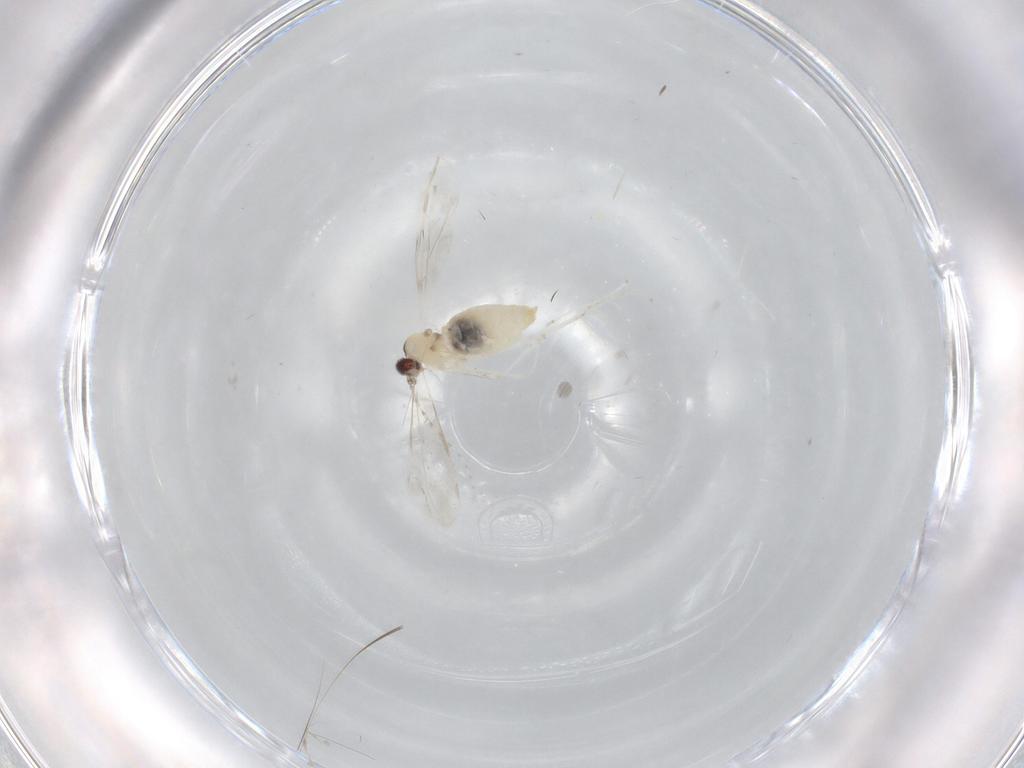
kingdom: Animalia
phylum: Arthropoda
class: Insecta
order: Diptera
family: Cecidomyiidae
